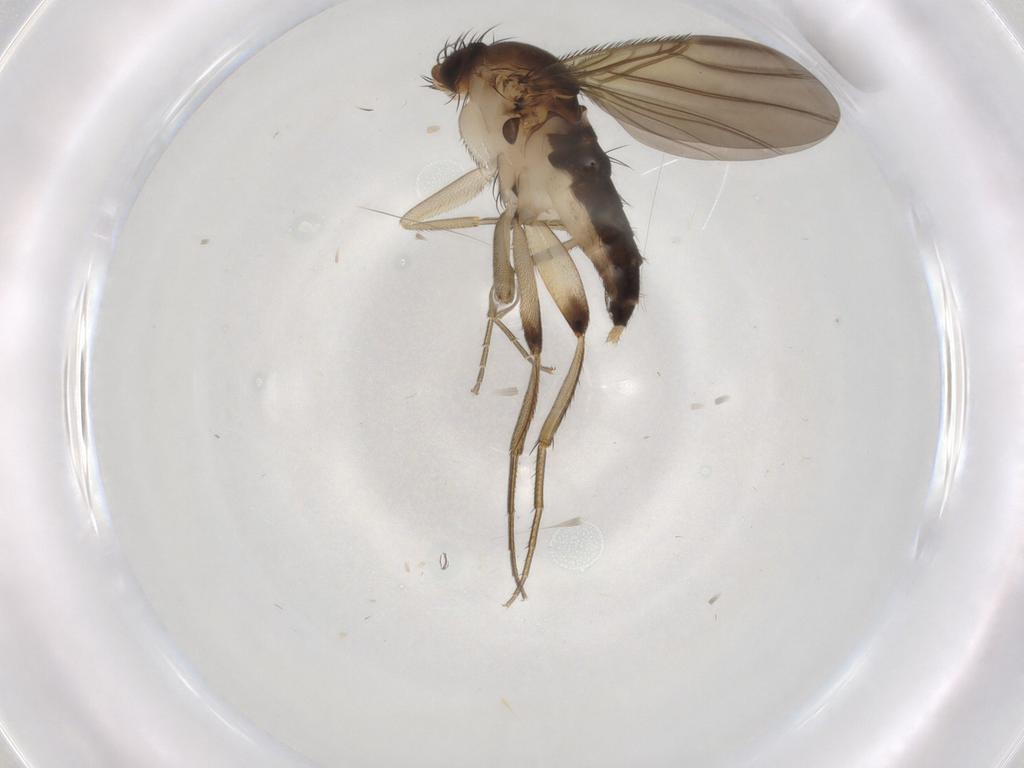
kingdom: Animalia
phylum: Arthropoda
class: Insecta
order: Diptera
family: Phoridae
